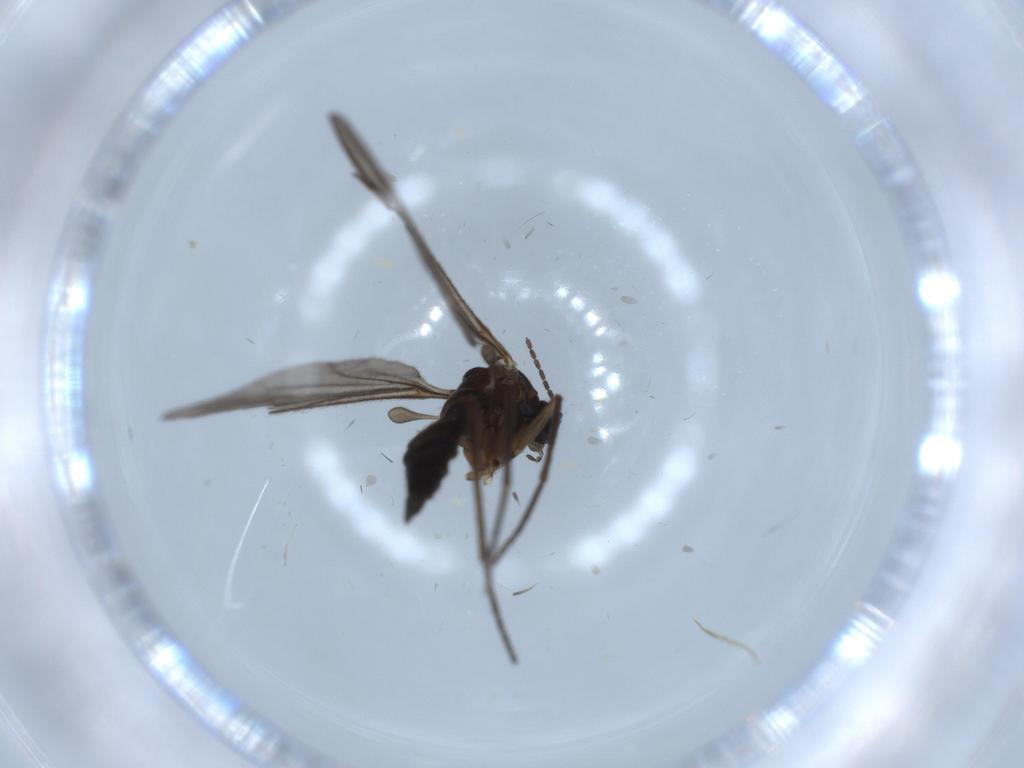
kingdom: Animalia
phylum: Arthropoda
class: Insecta
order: Diptera
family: Sciaridae
